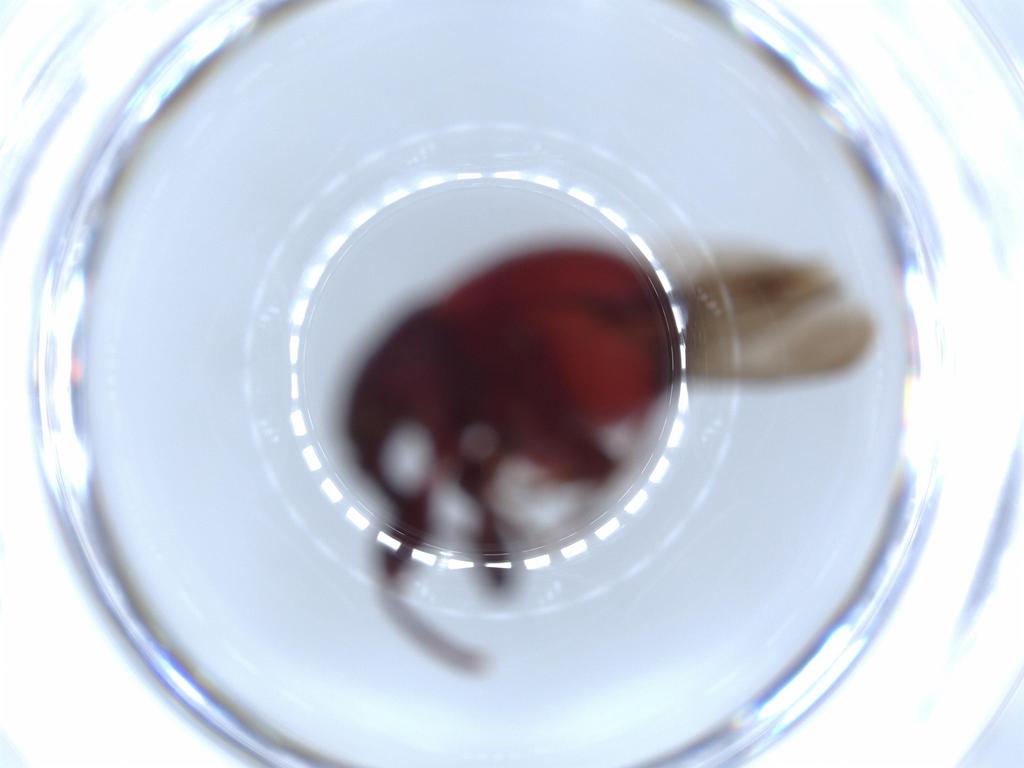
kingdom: Animalia
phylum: Arthropoda
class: Insecta
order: Coleoptera
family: Attelabidae
